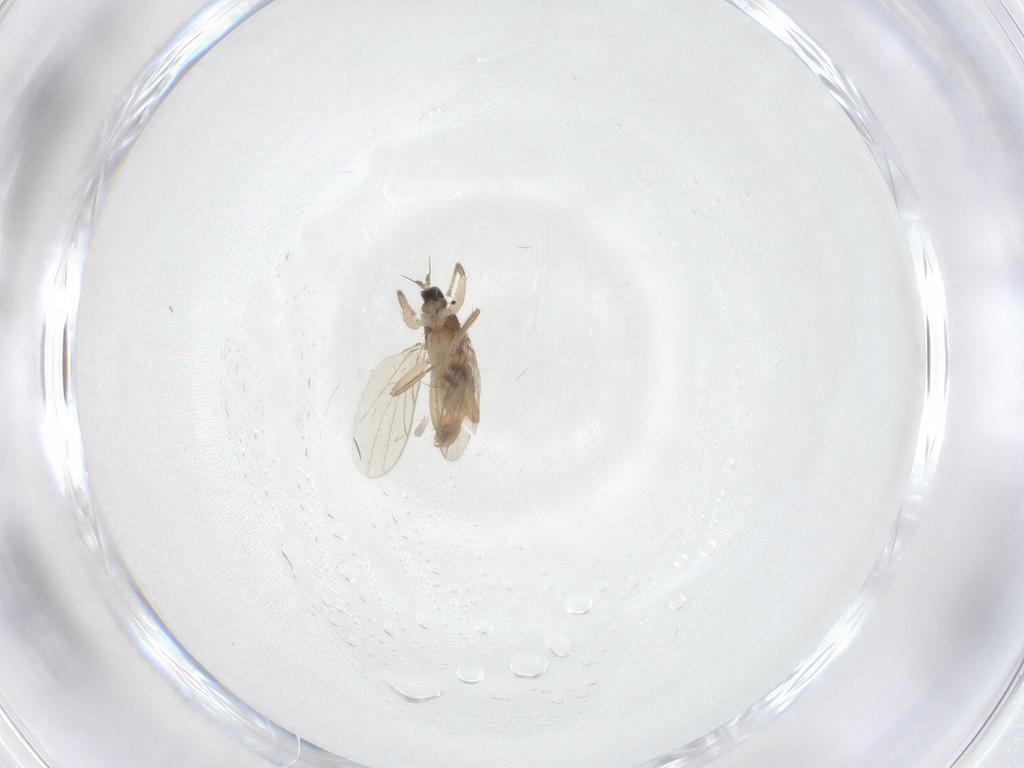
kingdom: Animalia
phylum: Arthropoda
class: Insecta
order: Diptera
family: Hybotidae
